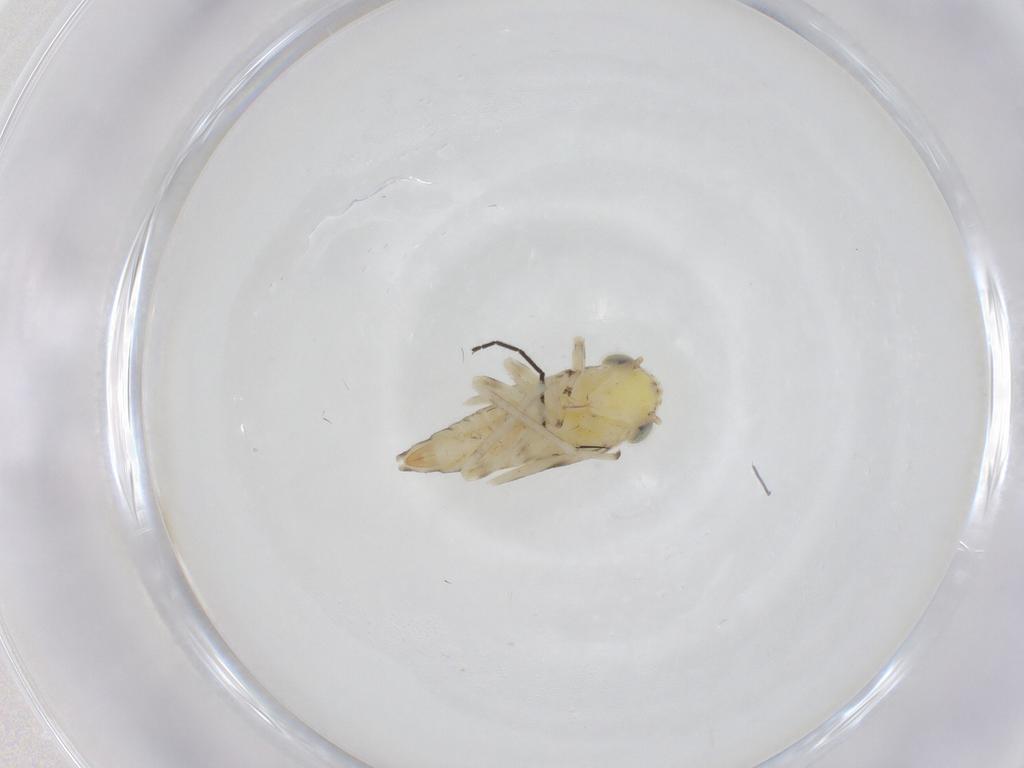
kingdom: Animalia
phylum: Arthropoda
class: Insecta
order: Hemiptera
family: Cicadellidae
